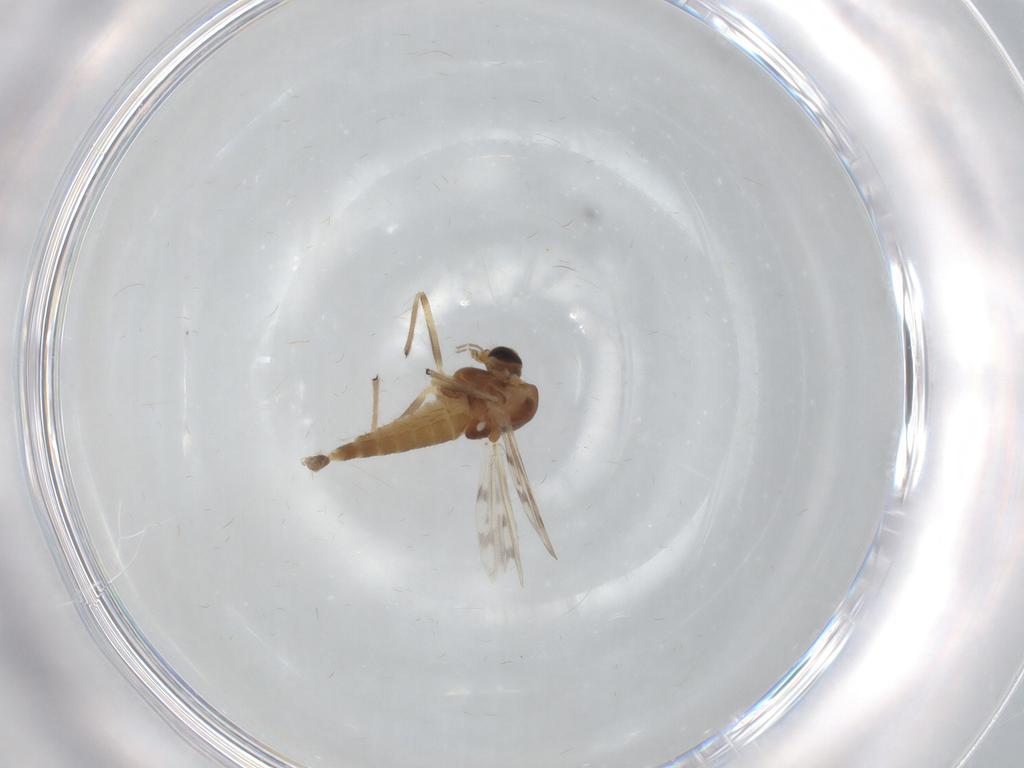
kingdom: Animalia
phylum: Arthropoda
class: Insecta
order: Diptera
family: Chironomidae
